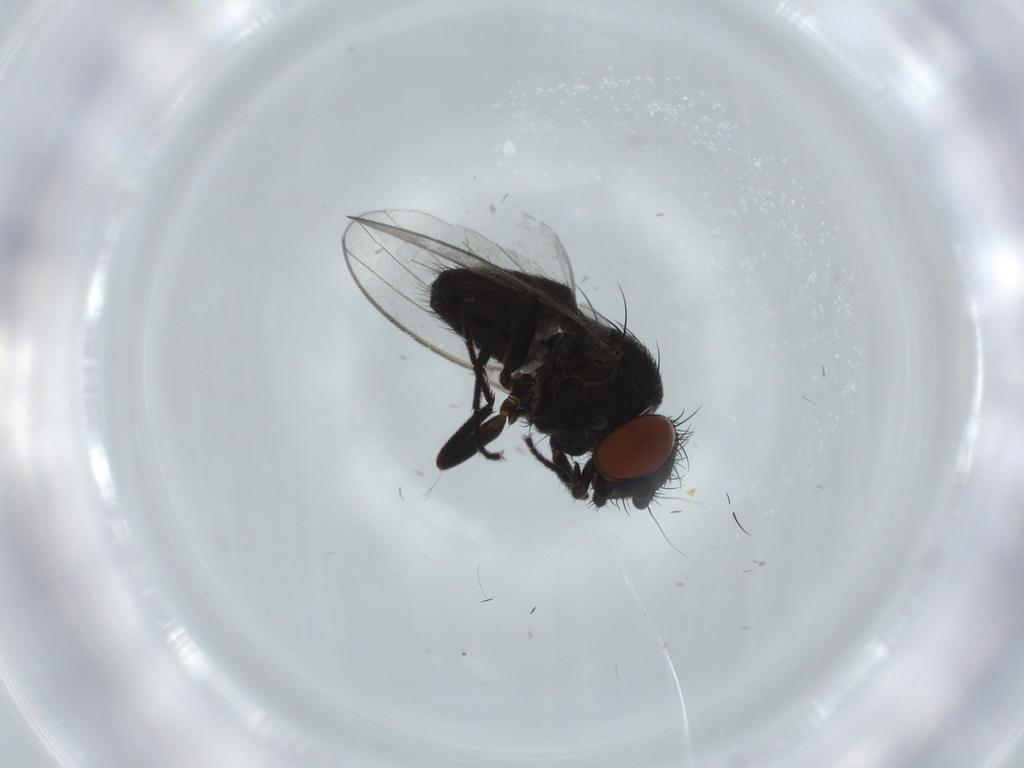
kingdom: Animalia
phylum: Arthropoda
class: Insecta
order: Diptera
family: Milichiidae
